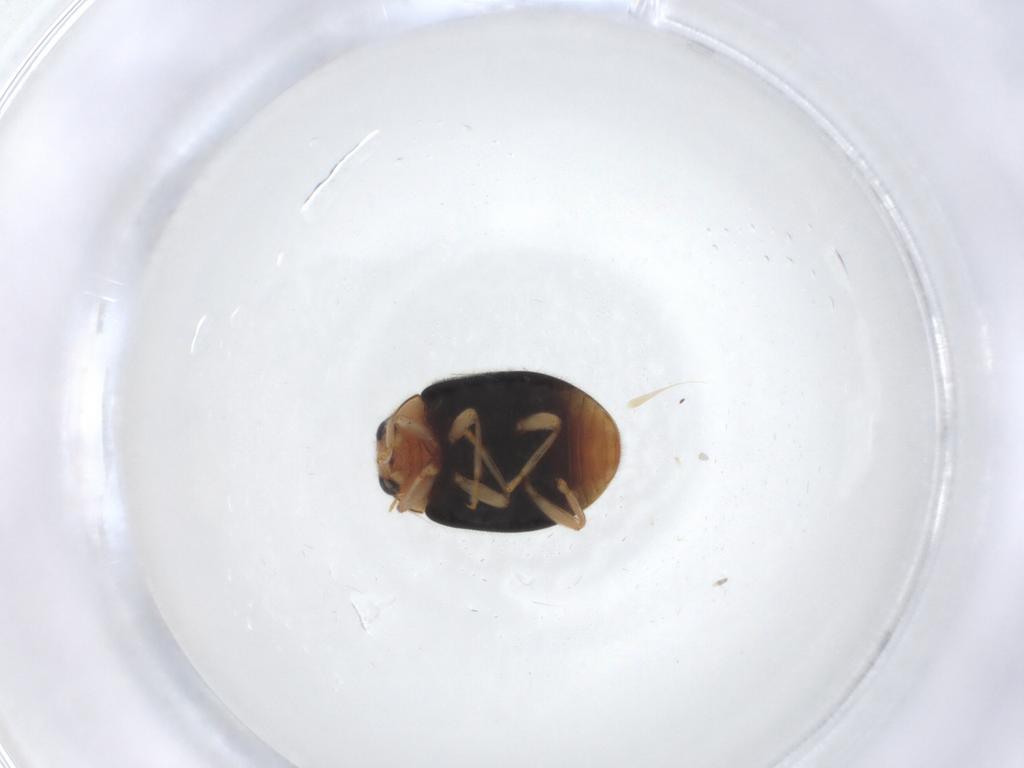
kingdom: Animalia
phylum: Arthropoda
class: Insecta
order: Coleoptera
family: Coccinellidae
